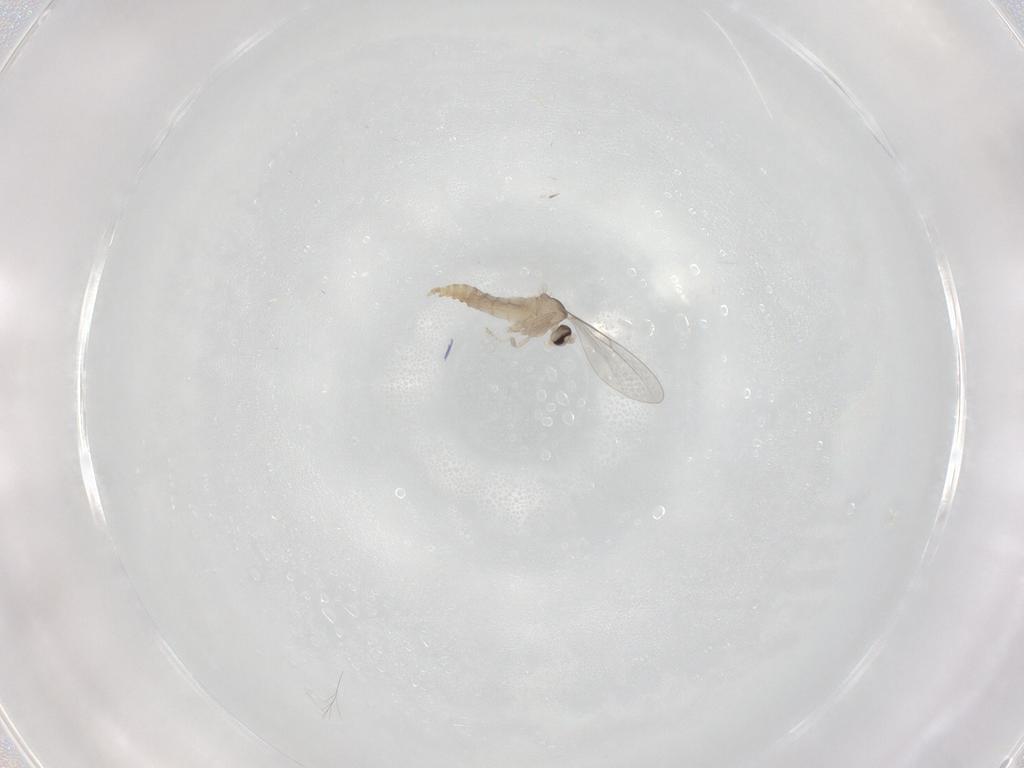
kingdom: Animalia
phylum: Arthropoda
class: Insecta
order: Diptera
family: Cecidomyiidae
